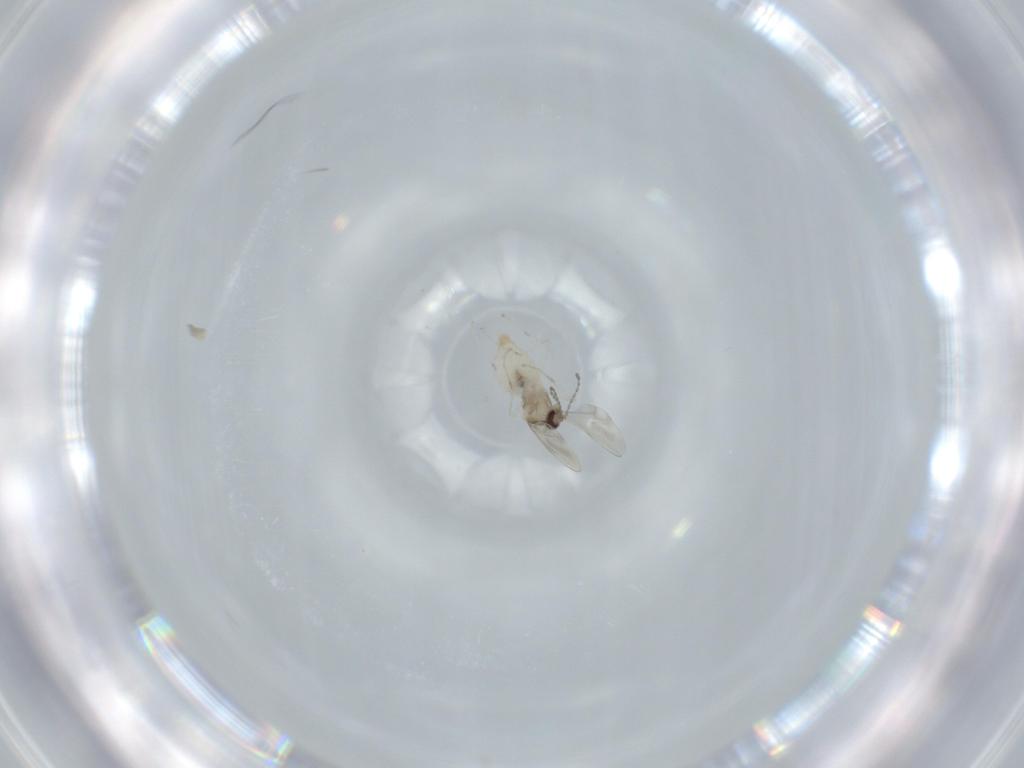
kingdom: Animalia
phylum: Arthropoda
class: Insecta
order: Diptera
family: Cecidomyiidae
